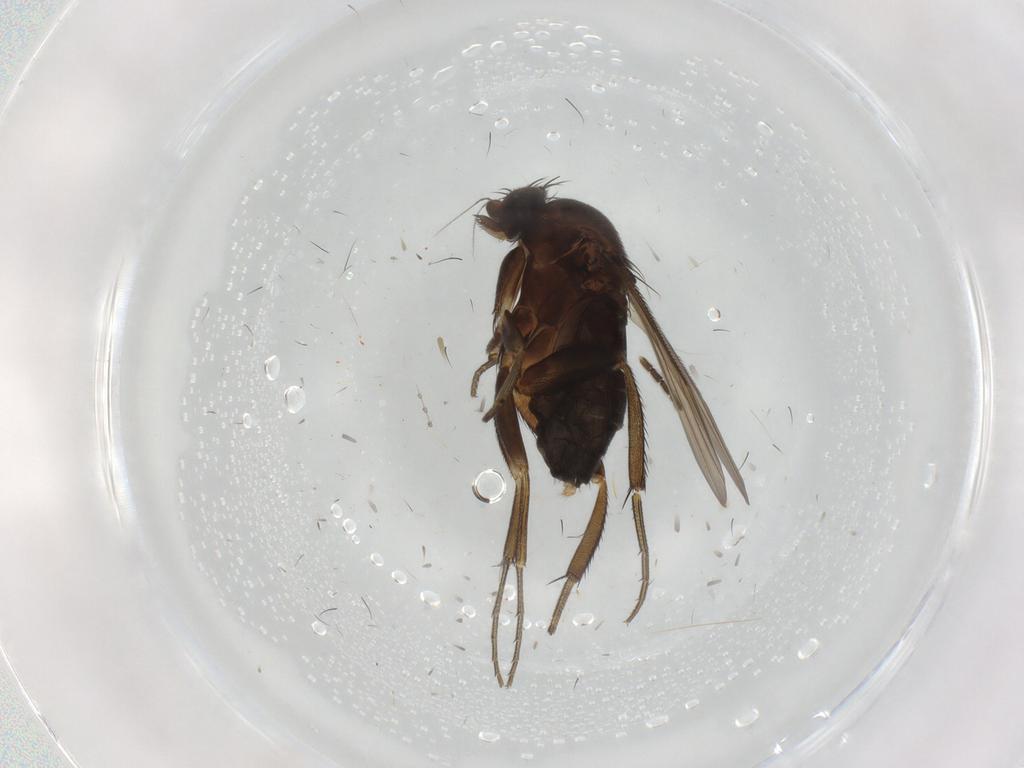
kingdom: Animalia
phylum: Arthropoda
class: Insecta
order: Diptera
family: Sciaridae
